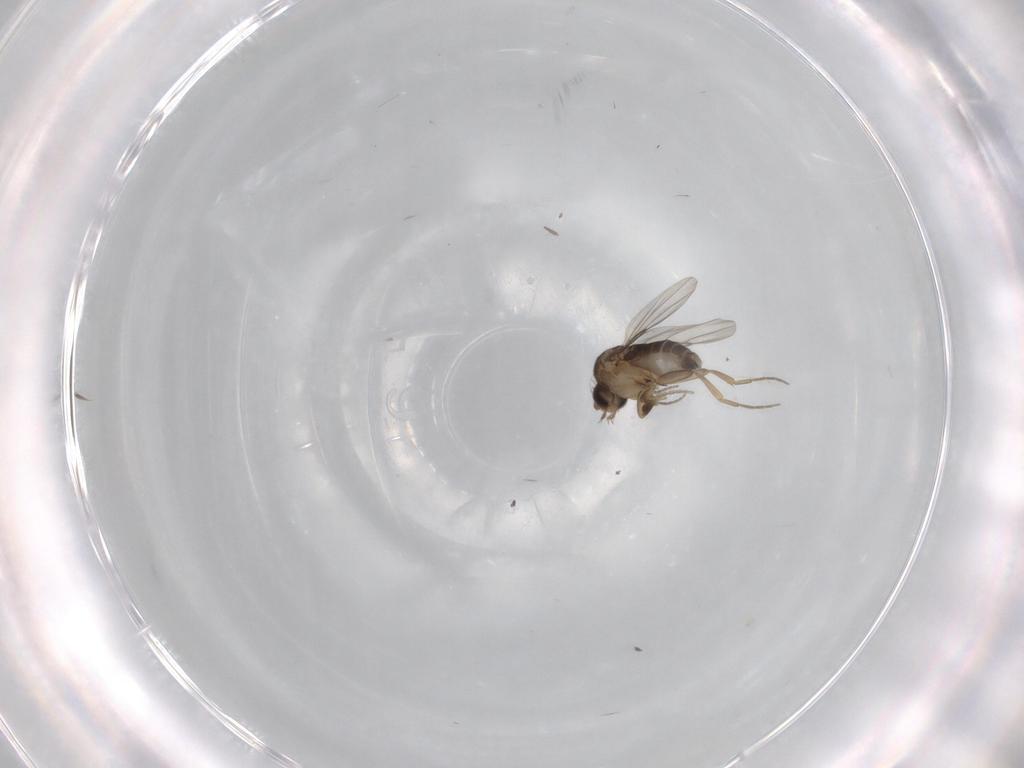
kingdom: Animalia
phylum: Arthropoda
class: Insecta
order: Diptera
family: Phoridae
